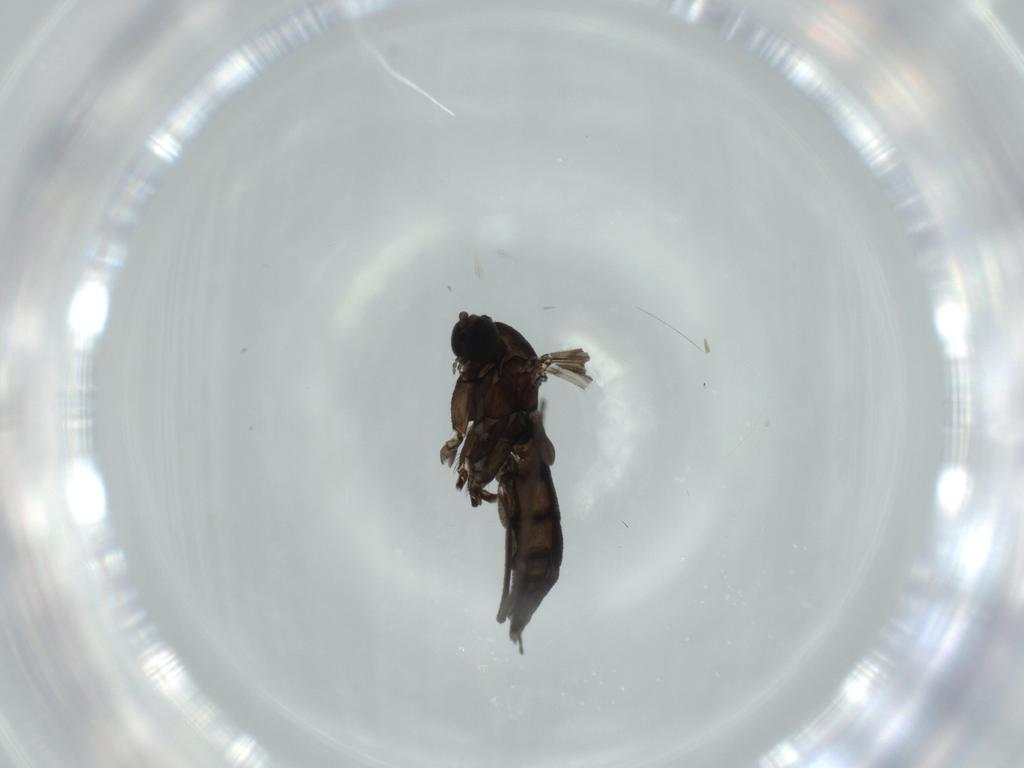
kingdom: Animalia
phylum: Arthropoda
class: Insecta
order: Diptera
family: Sciaridae
